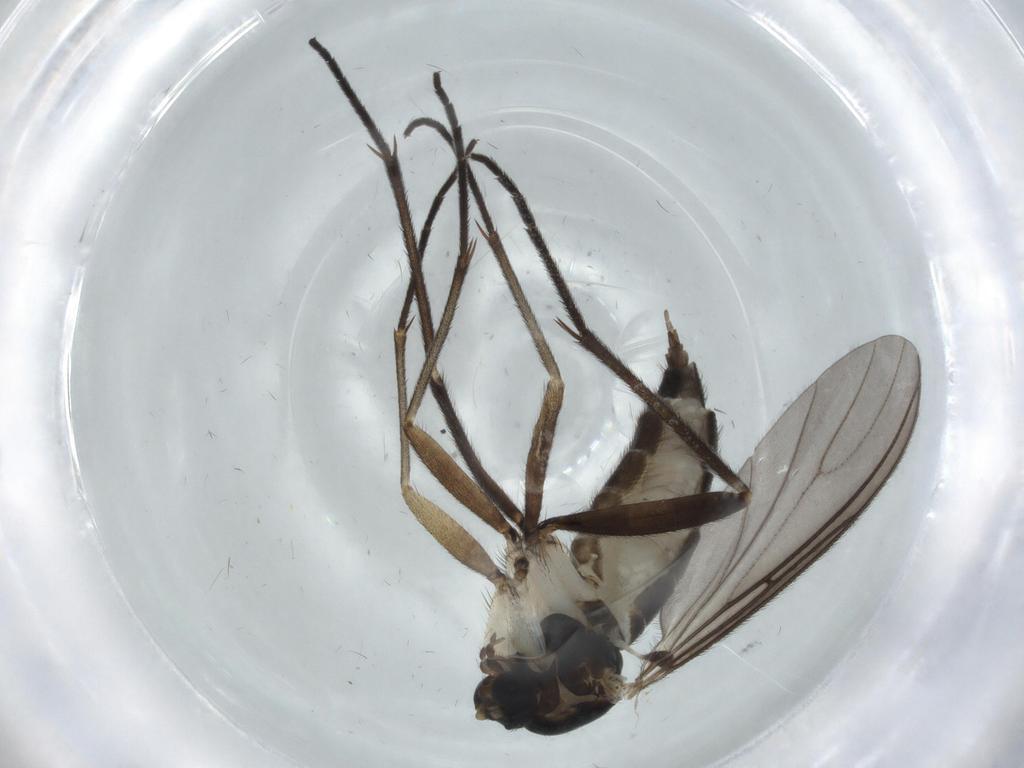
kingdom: Animalia
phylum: Arthropoda
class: Insecta
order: Diptera
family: Sciaridae
